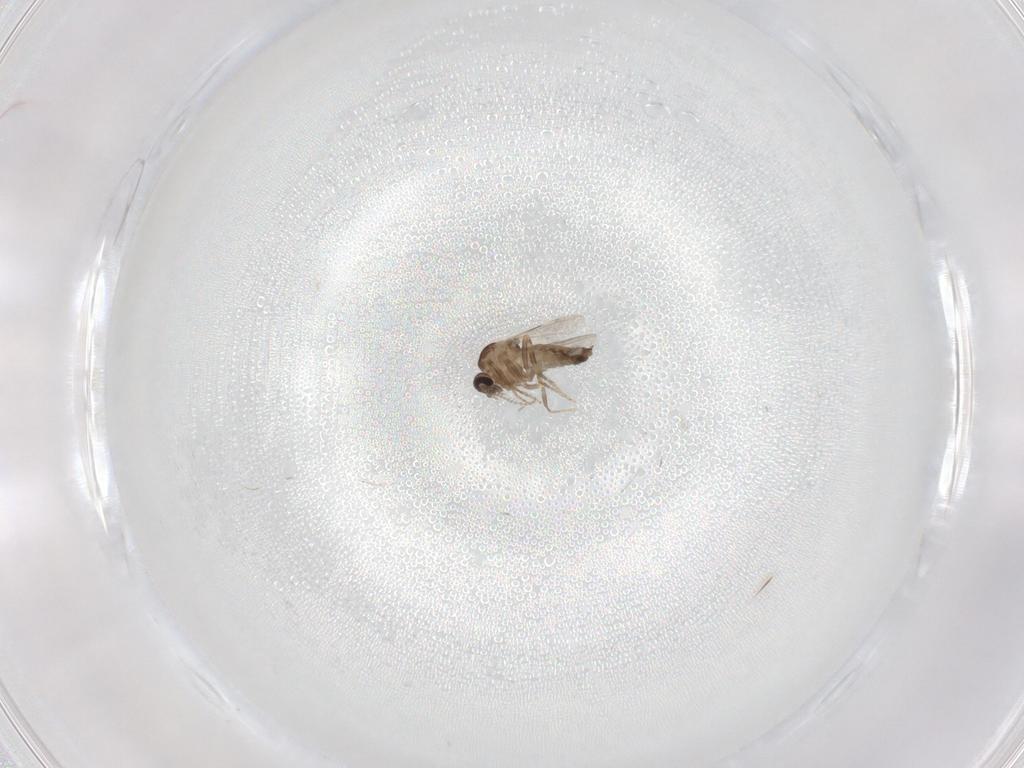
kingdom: Animalia
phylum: Arthropoda
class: Insecta
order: Diptera
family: Ceratopogonidae
